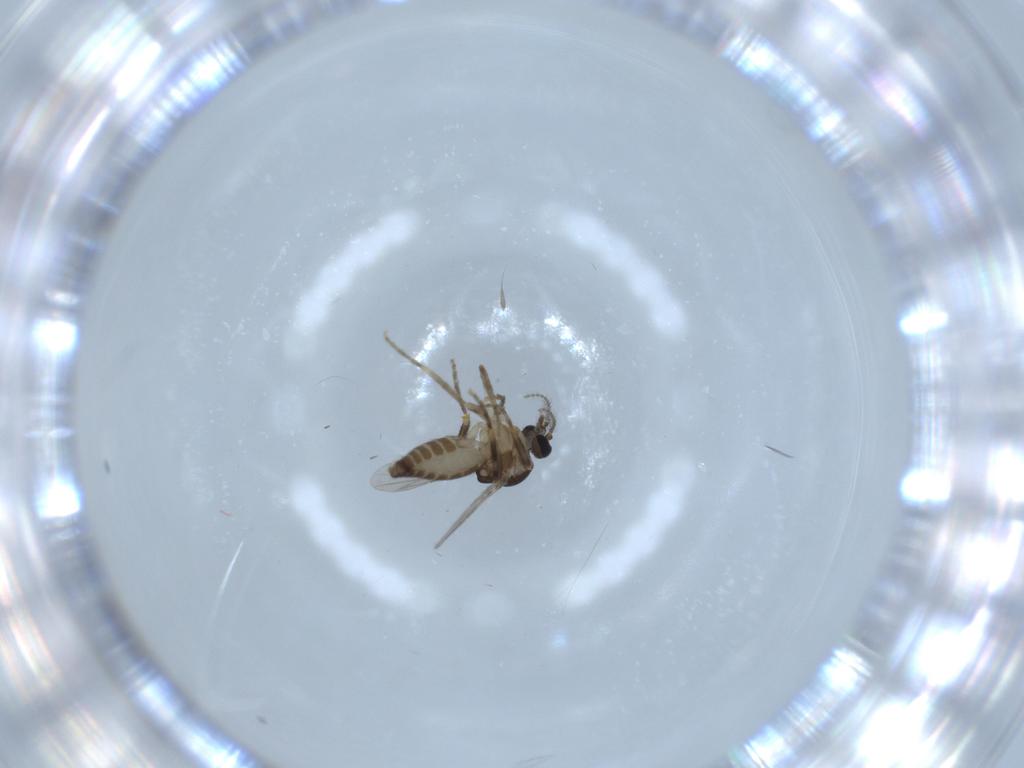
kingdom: Animalia
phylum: Arthropoda
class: Insecta
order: Diptera
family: Ceratopogonidae
